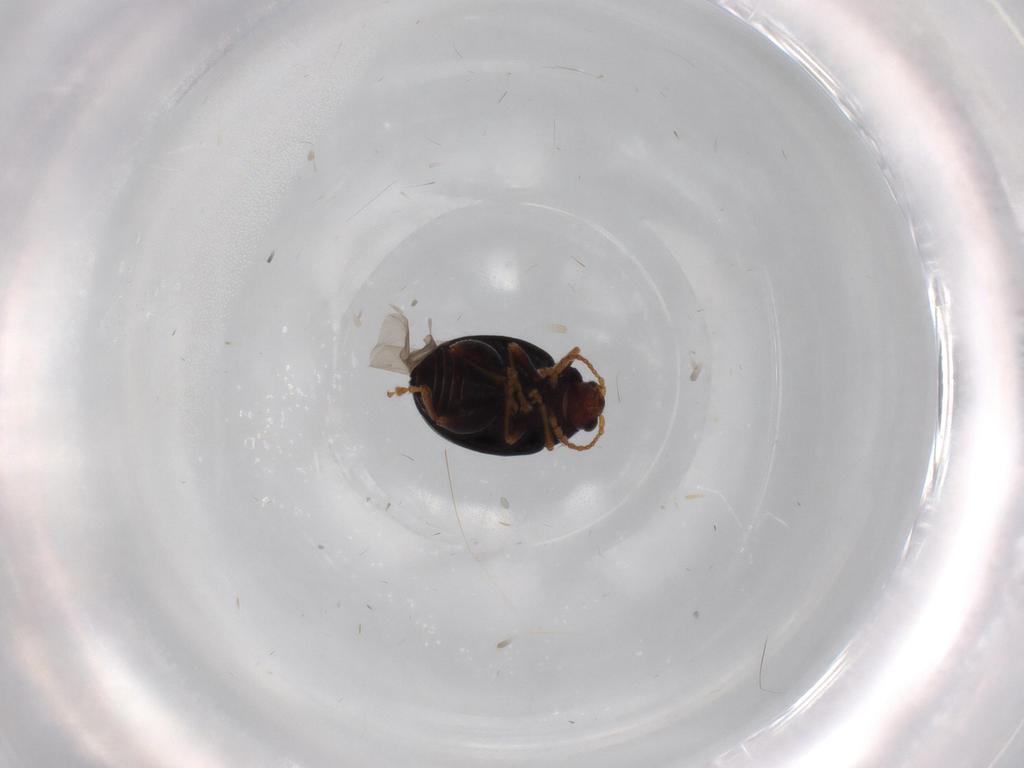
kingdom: Animalia
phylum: Arthropoda
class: Insecta
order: Coleoptera
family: Chrysomelidae
